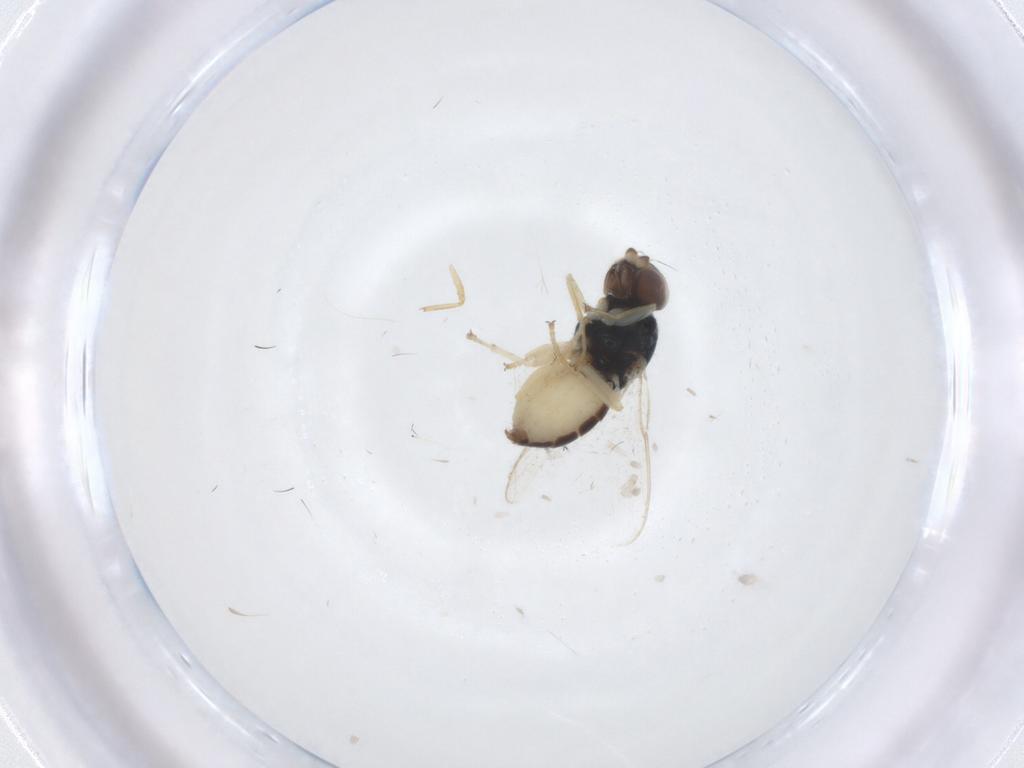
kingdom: Animalia
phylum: Arthropoda
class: Insecta
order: Diptera
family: Chloropidae
